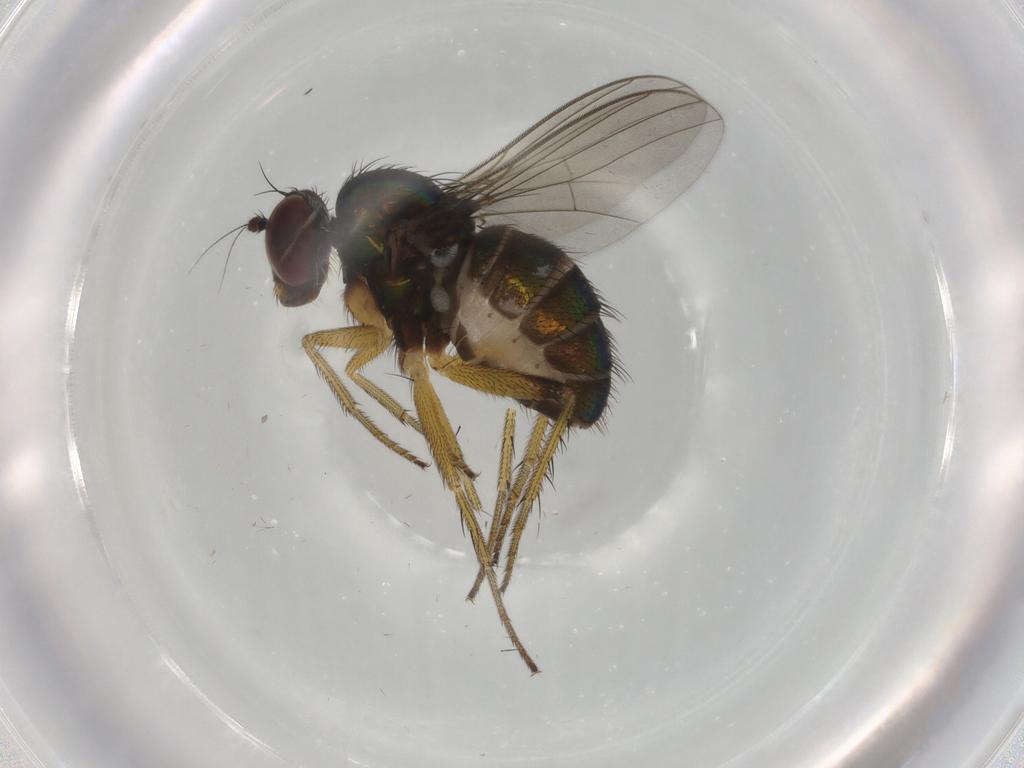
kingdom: Animalia
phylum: Arthropoda
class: Insecta
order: Diptera
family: Dolichopodidae
